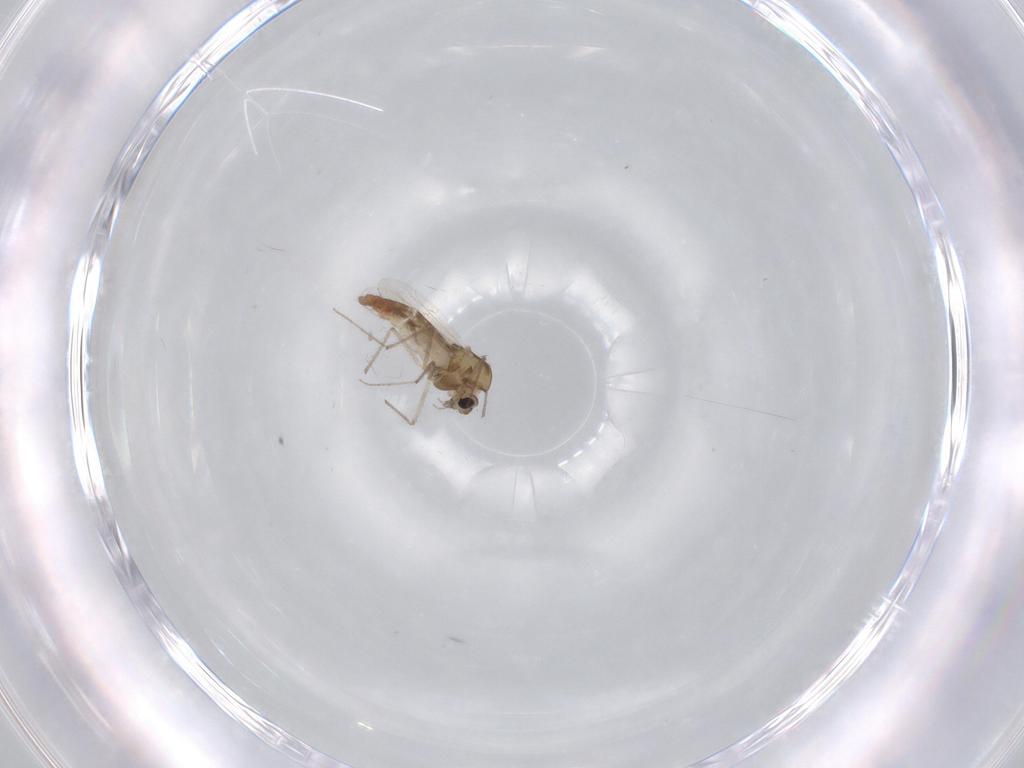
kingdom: Animalia
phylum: Arthropoda
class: Insecta
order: Diptera
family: Chironomidae
